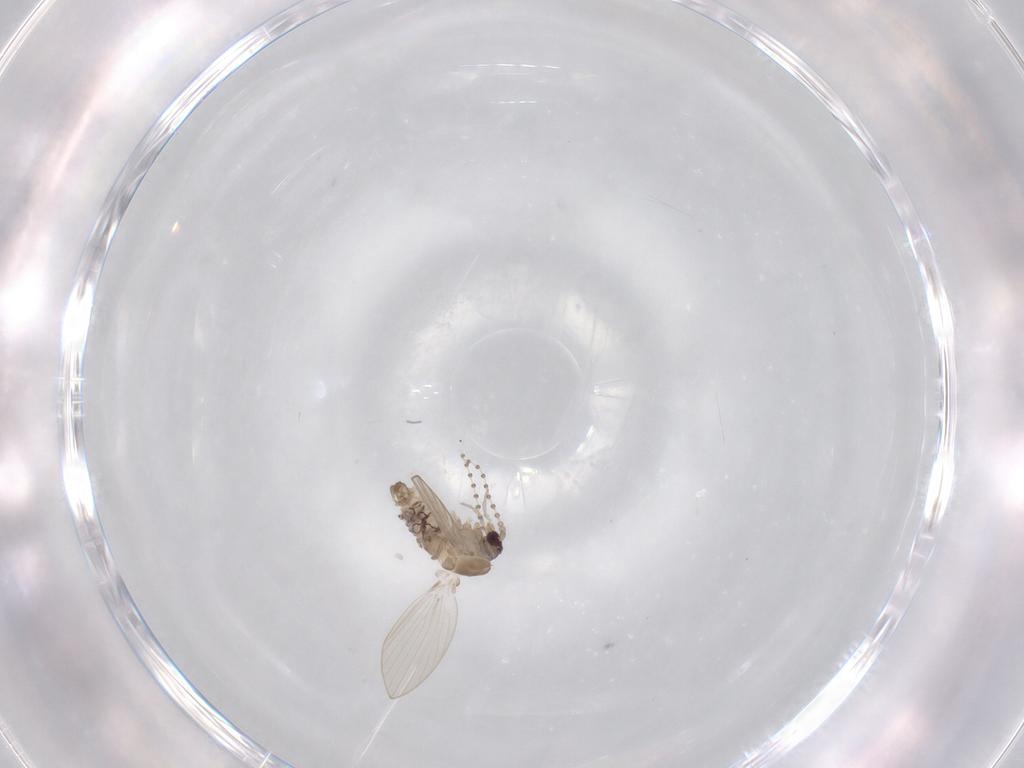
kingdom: Animalia
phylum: Arthropoda
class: Insecta
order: Diptera
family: Psychodidae
